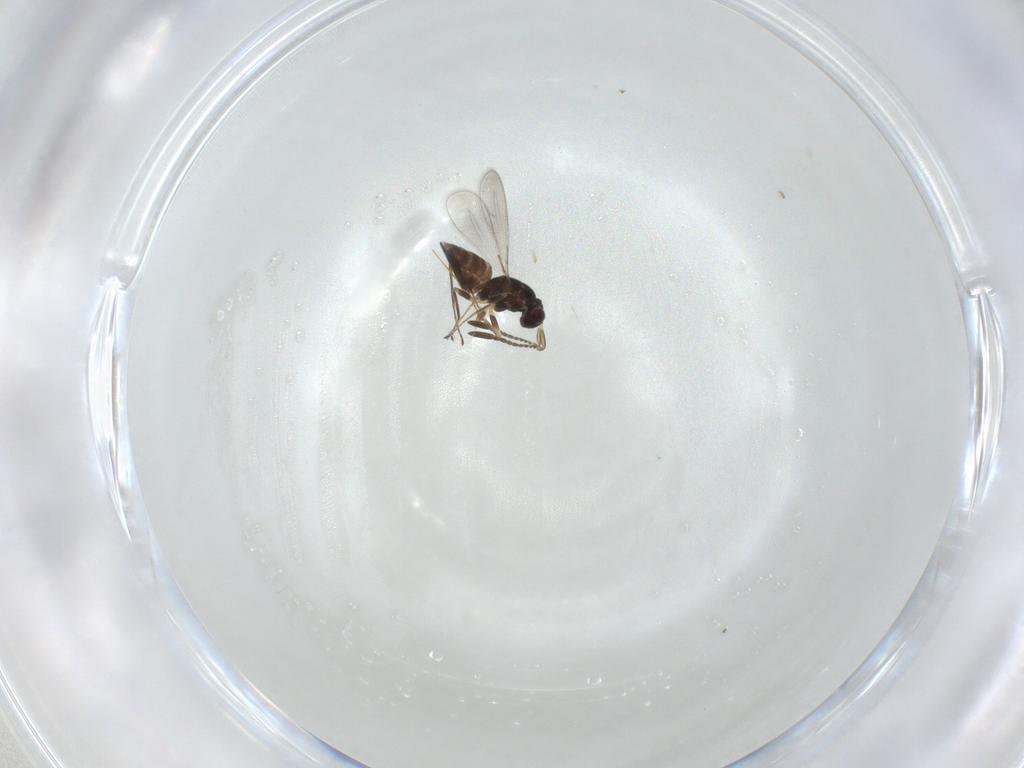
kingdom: Animalia
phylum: Arthropoda
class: Insecta
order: Hymenoptera
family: Mymaridae
